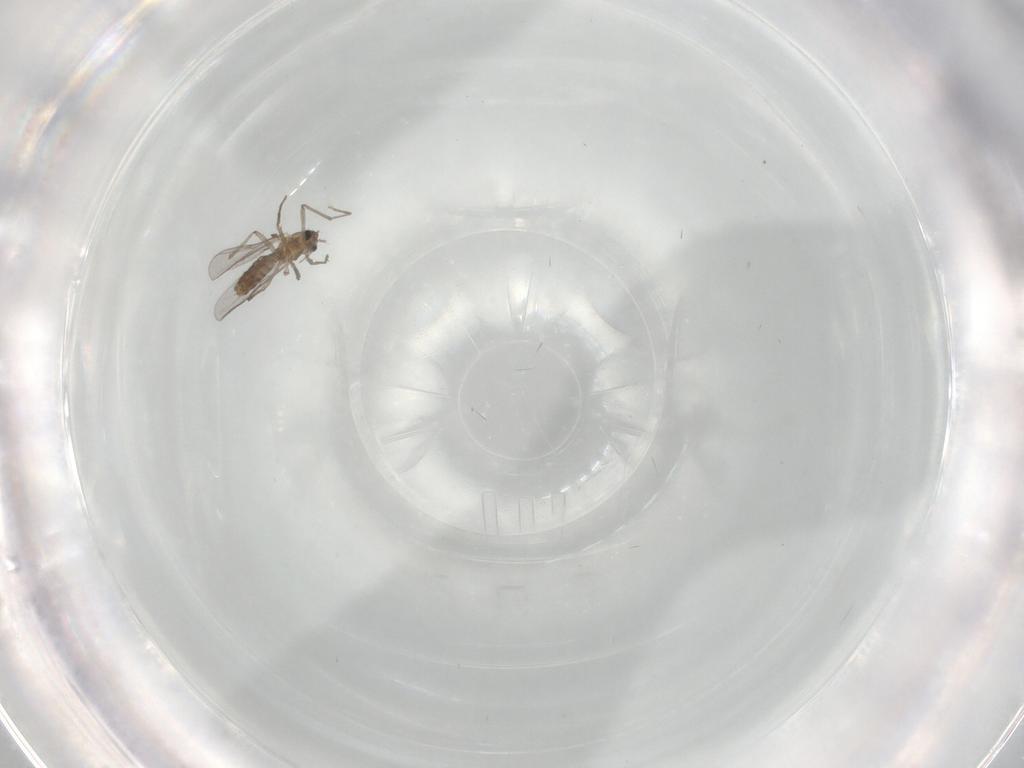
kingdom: Animalia
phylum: Arthropoda
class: Insecta
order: Diptera
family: Chironomidae
